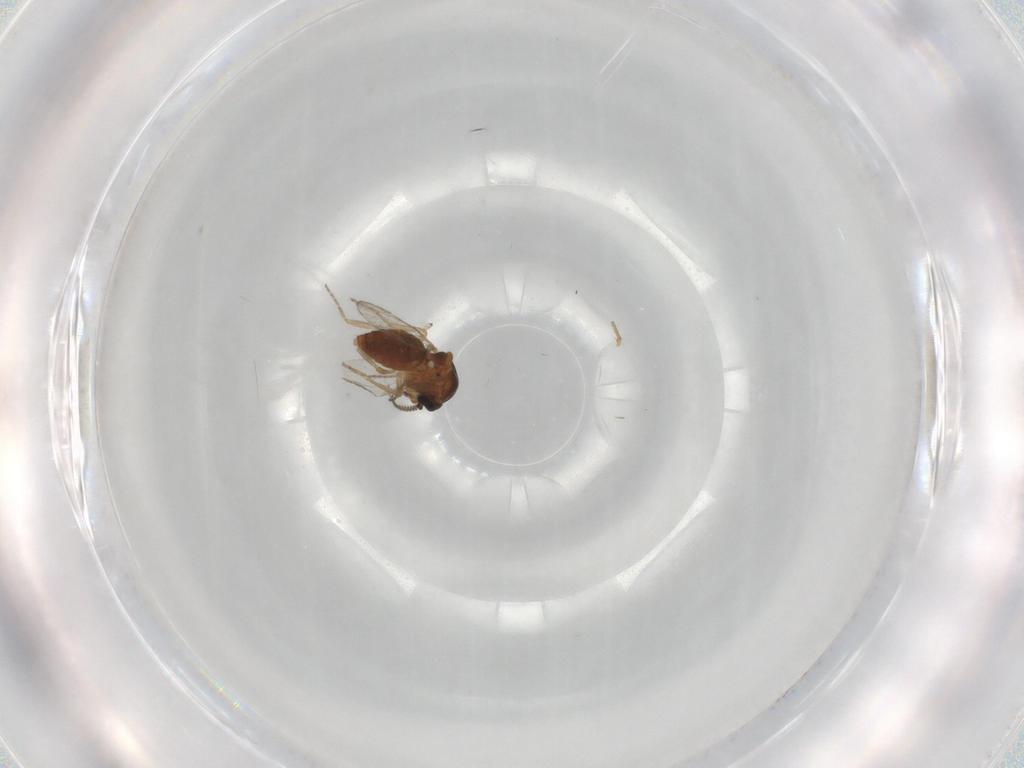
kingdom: Animalia
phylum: Arthropoda
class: Insecta
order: Diptera
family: Ceratopogonidae
